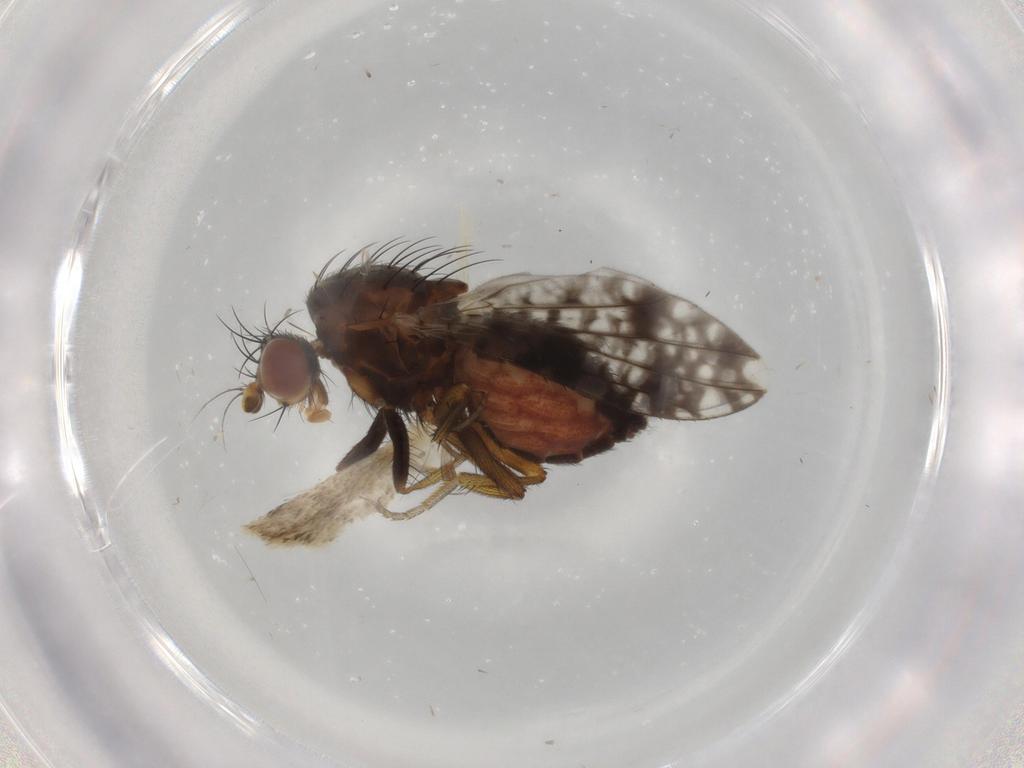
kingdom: Animalia
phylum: Arthropoda
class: Insecta
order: Diptera
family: Tephritidae
